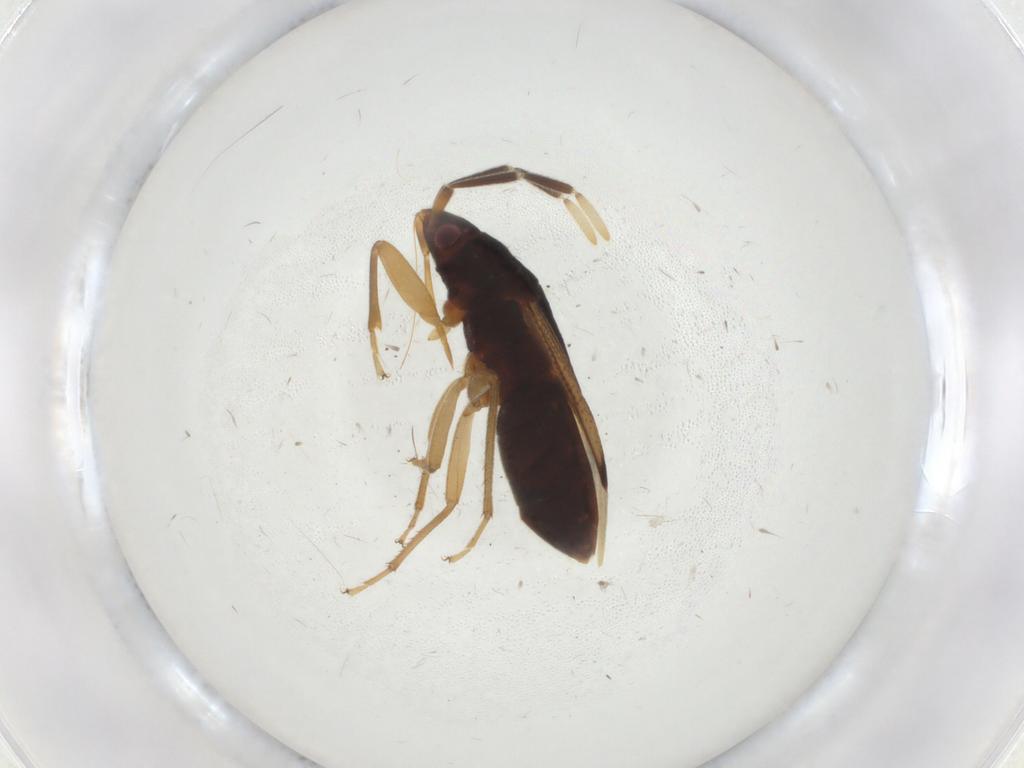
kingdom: Animalia
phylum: Arthropoda
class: Insecta
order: Hemiptera
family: Rhyparochromidae
